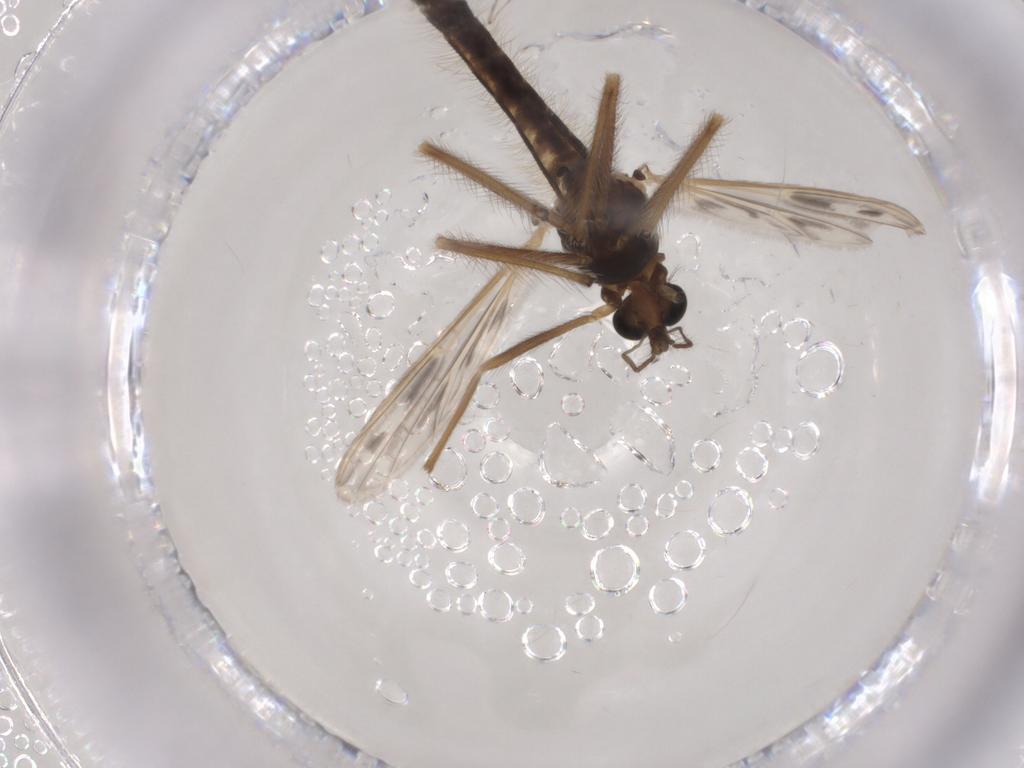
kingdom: Animalia
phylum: Arthropoda
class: Insecta
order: Diptera
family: Chironomidae
